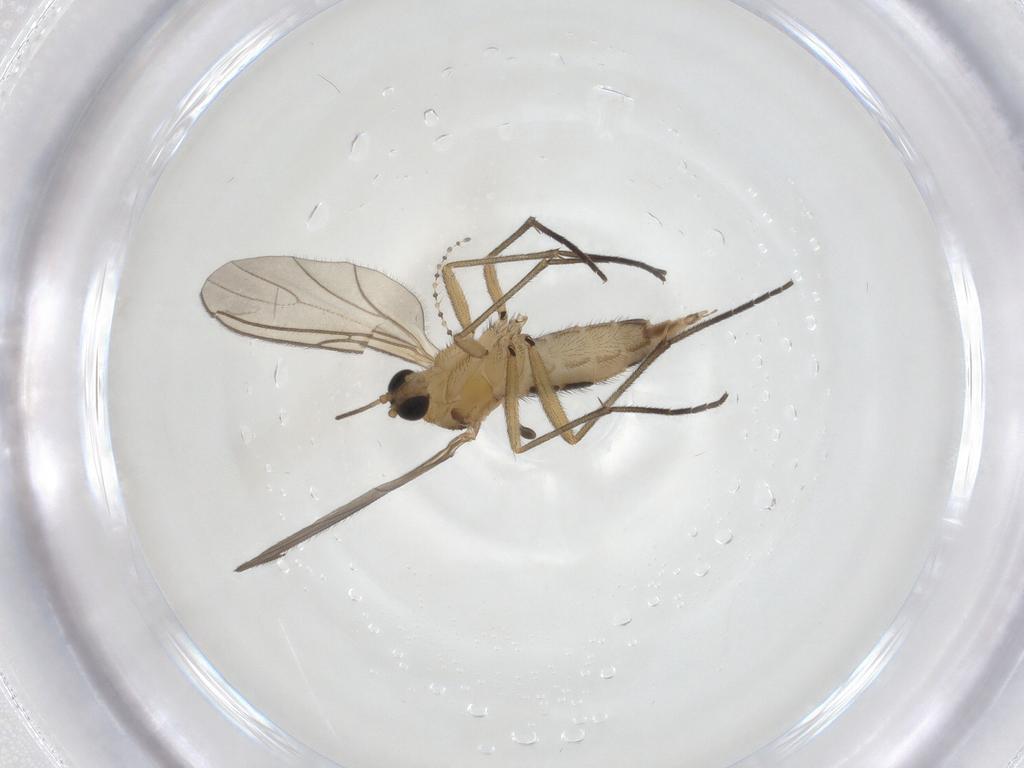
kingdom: Animalia
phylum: Arthropoda
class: Insecta
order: Diptera
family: Cecidomyiidae
